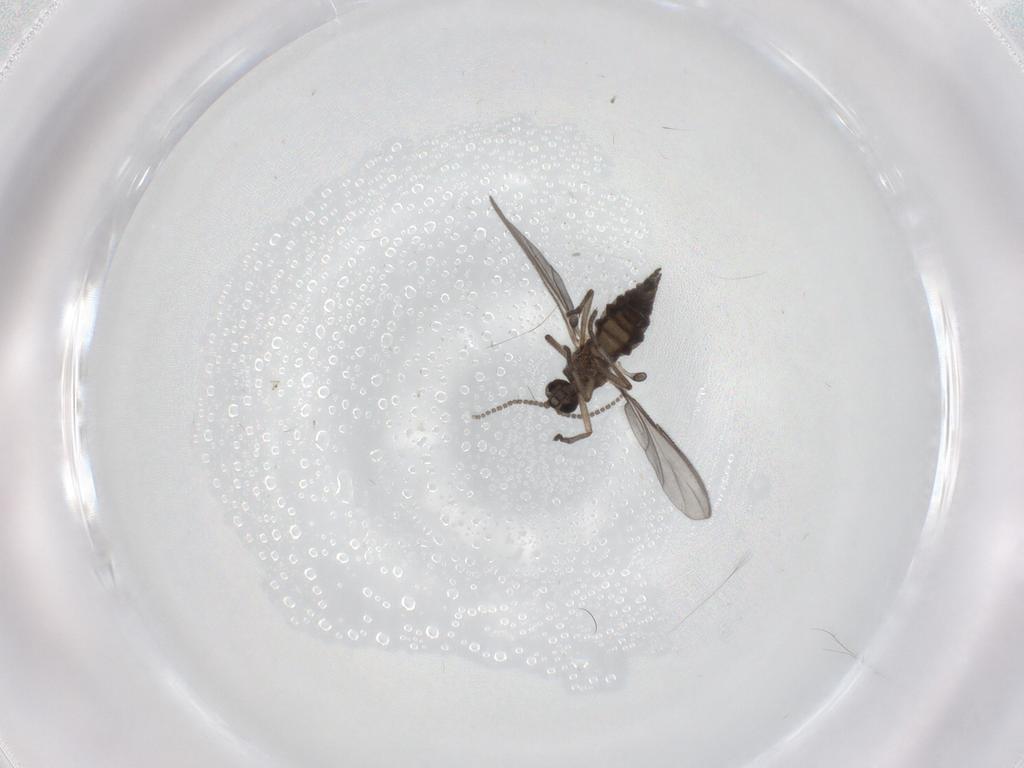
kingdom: Animalia
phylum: Arthropoda
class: Insecta
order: Diptera
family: Sciaridae
